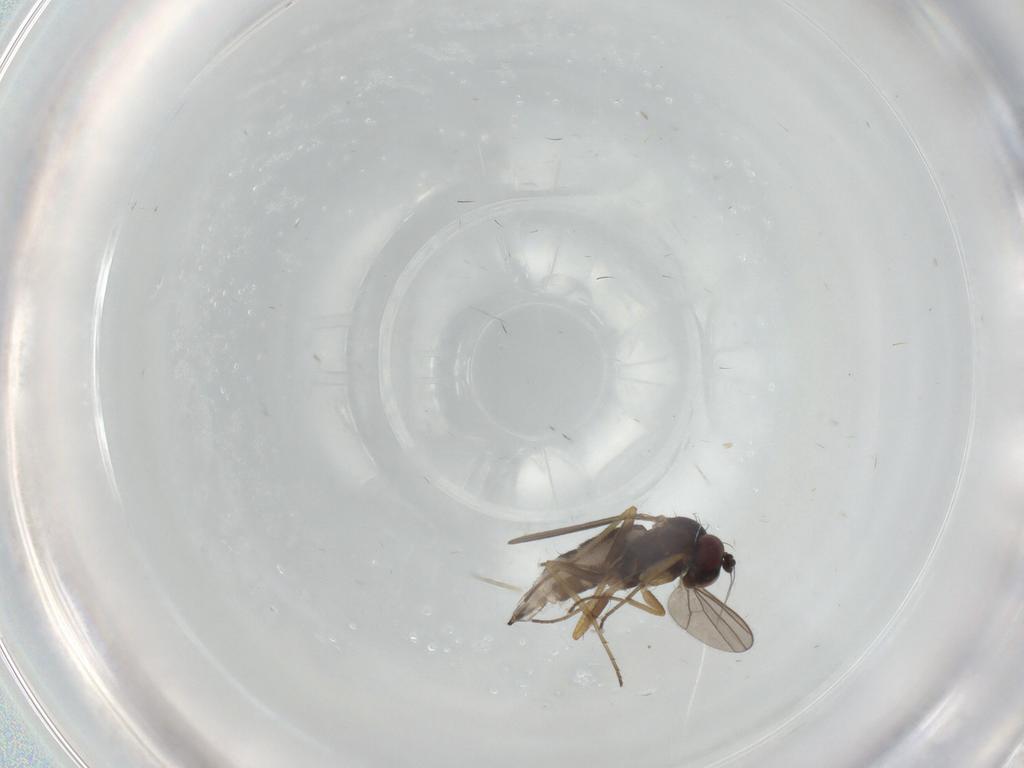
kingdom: Animalia
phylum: Arthropoda
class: Insecta
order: Diptera
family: Dolichopodidae
